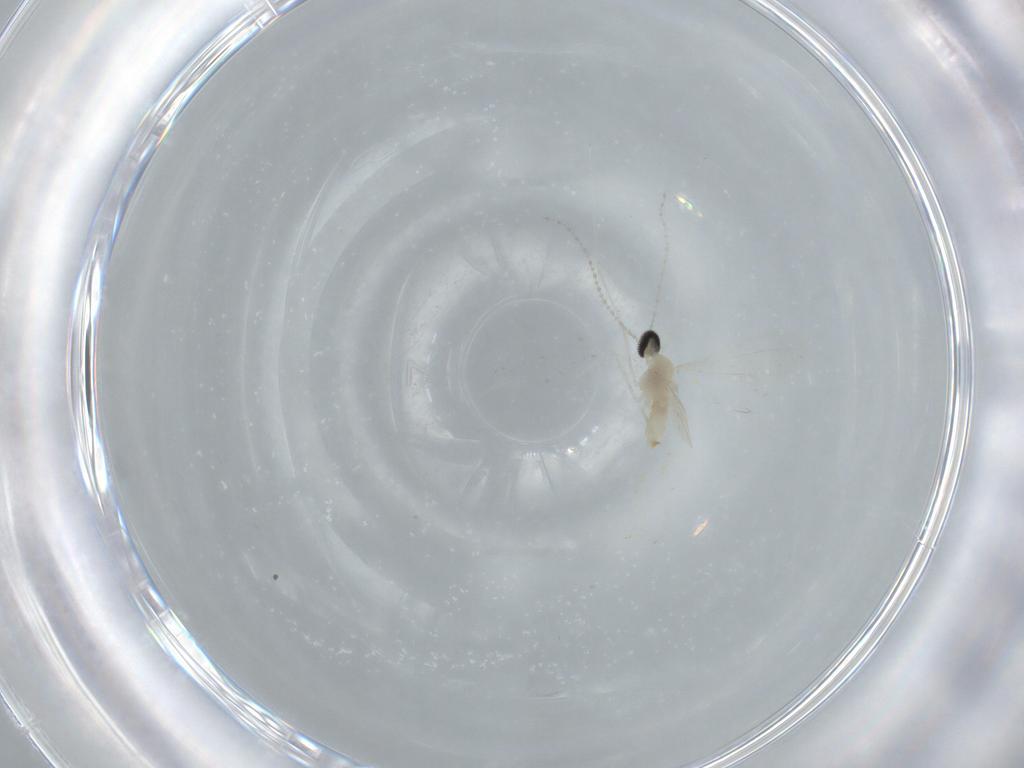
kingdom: Animalia
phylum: Arthropoda
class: Insecta
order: Diptera
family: Cecidomyiidae
